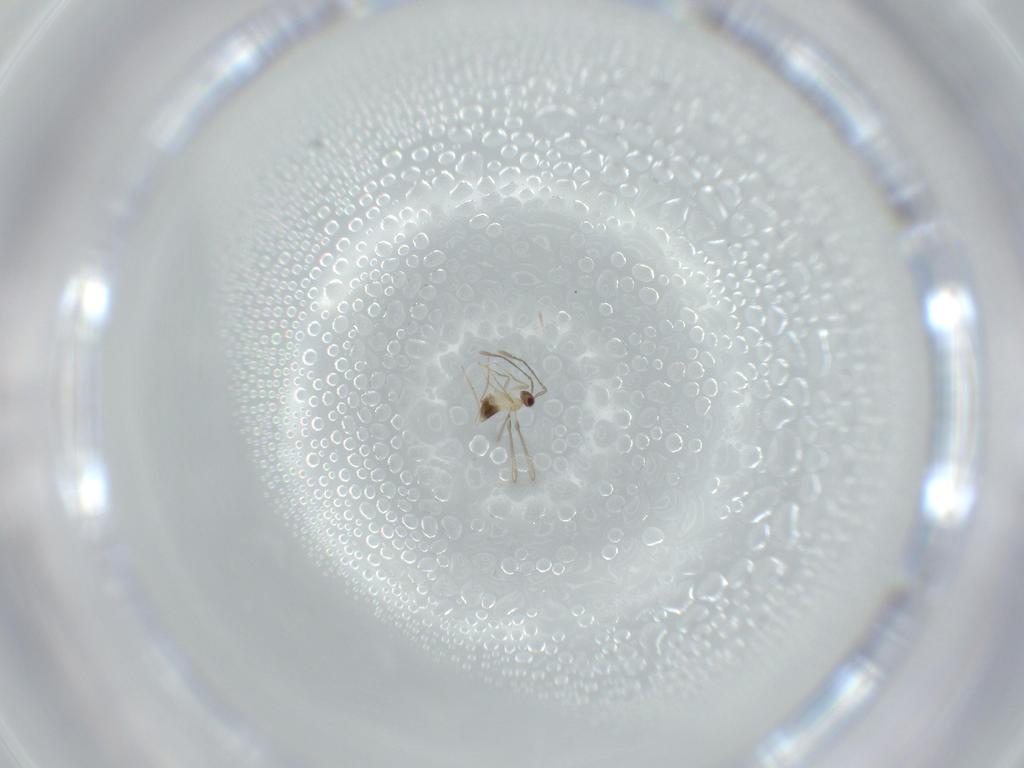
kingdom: Animalia
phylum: Arthropoda
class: Insecta
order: Hymenoptera
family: Mymaridae
